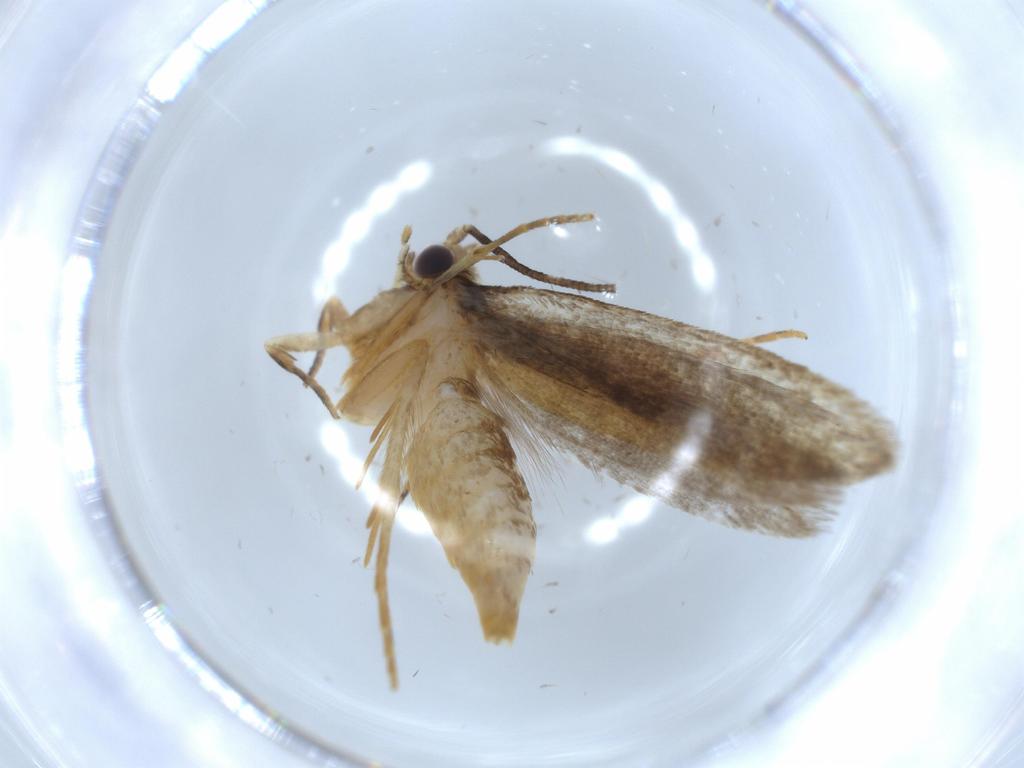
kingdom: Animalia
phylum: Arthropoda
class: Insecta
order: Lepidoptera
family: Tineidae
